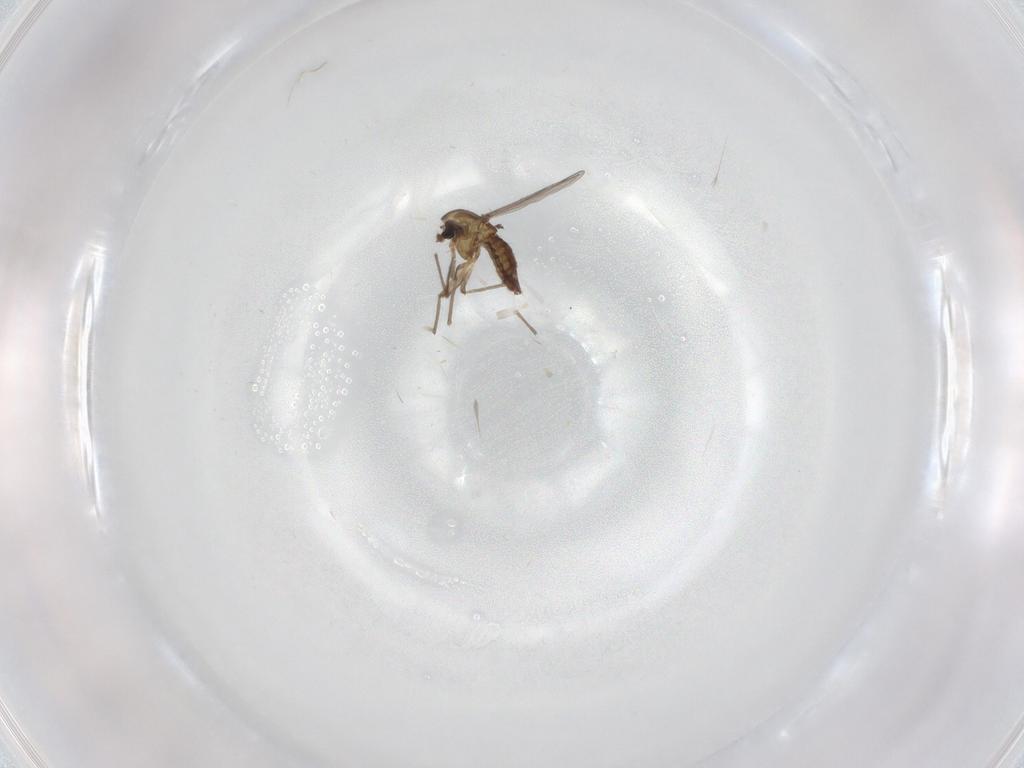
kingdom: Animalia
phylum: Arthropoda
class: Insecta
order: Diptera
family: Chironomidae
